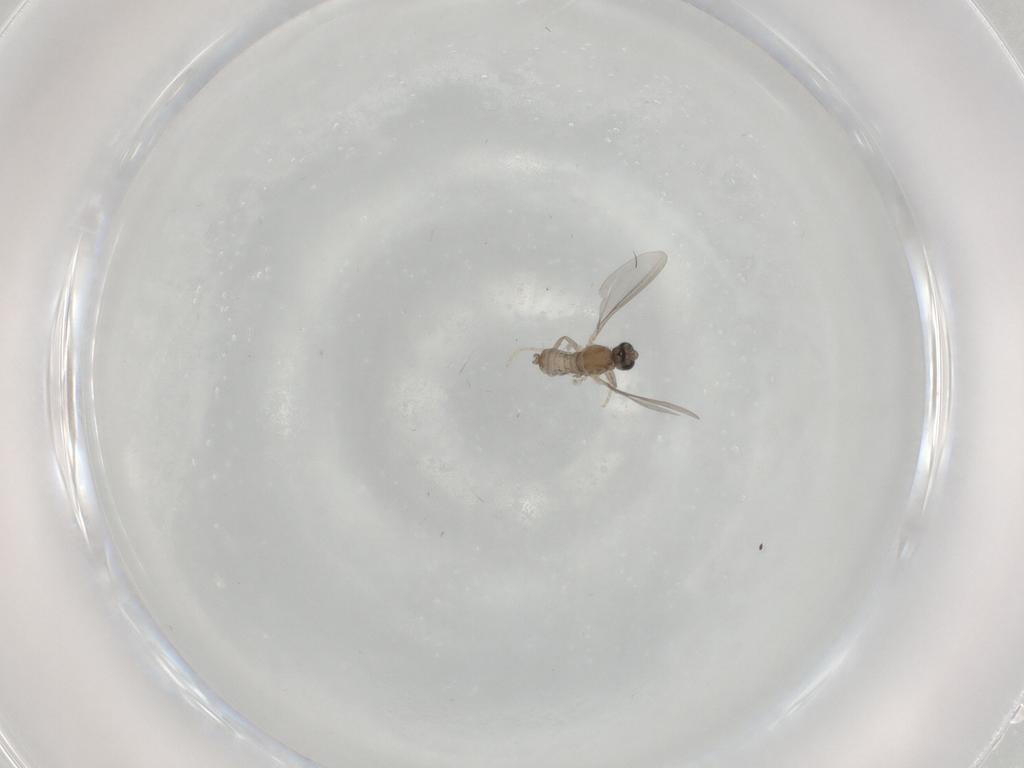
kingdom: Animalia
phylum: Arthropoda
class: Insecta
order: Diptera
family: Cecidomyiidae
